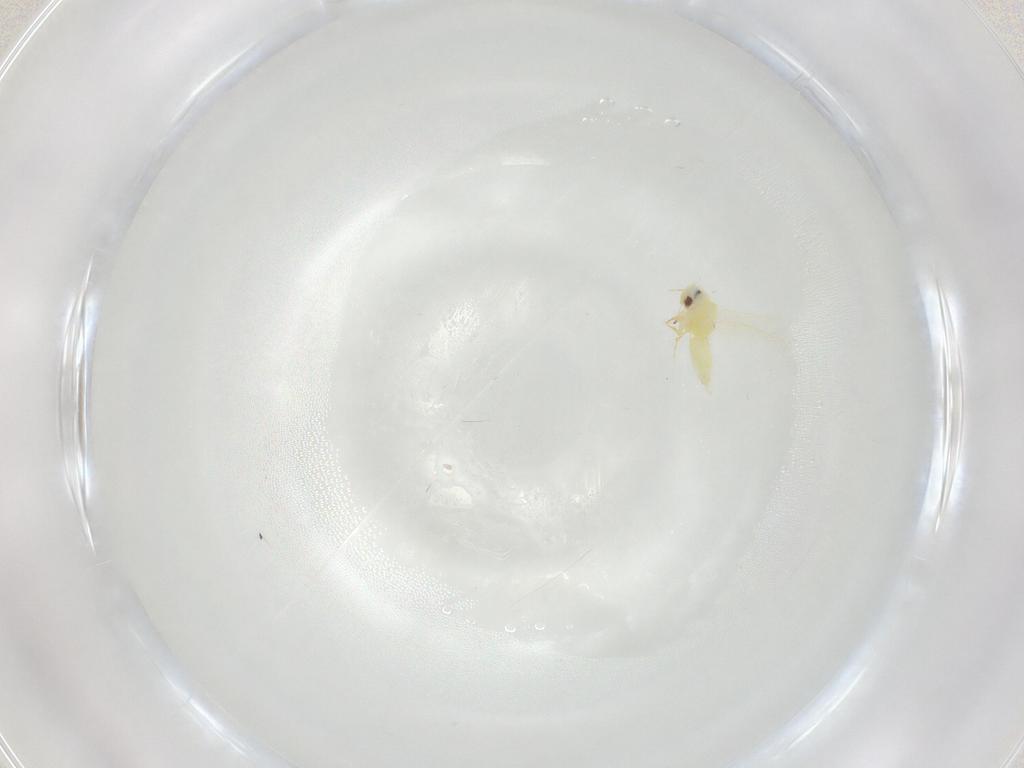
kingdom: Animalia
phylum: Arthropoda
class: Insecta
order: Hemiptera
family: Aleyrodidae
